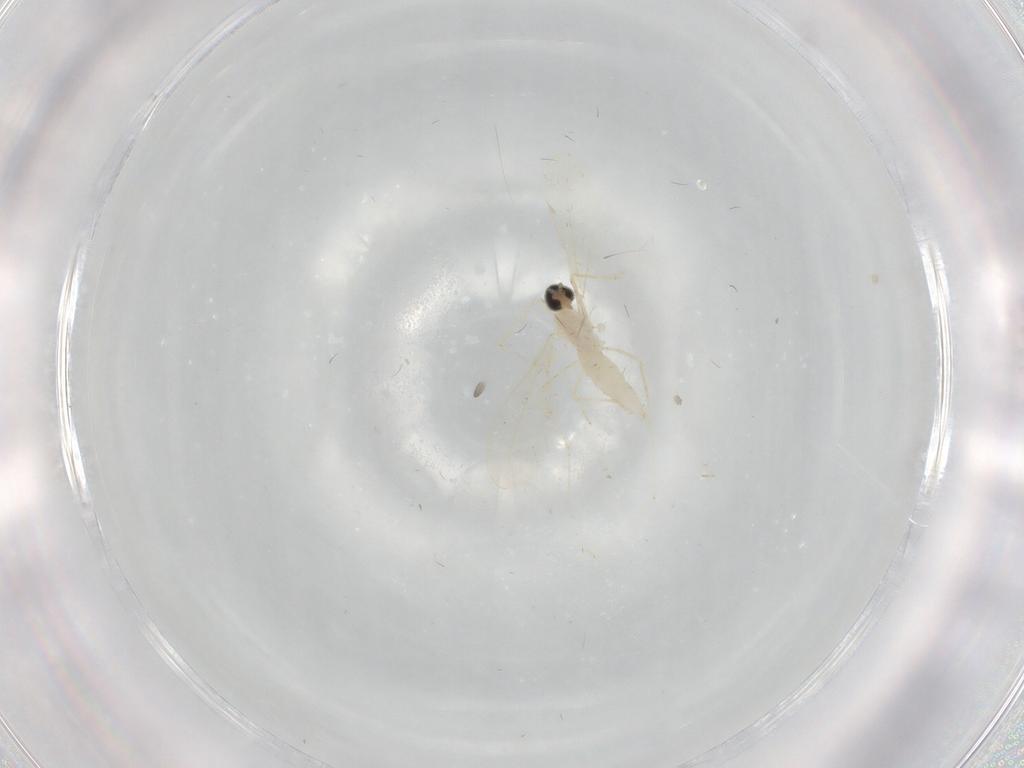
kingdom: Animalia
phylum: Arthropoda
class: Insecta
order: Diptera
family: Cecidomyiidae
